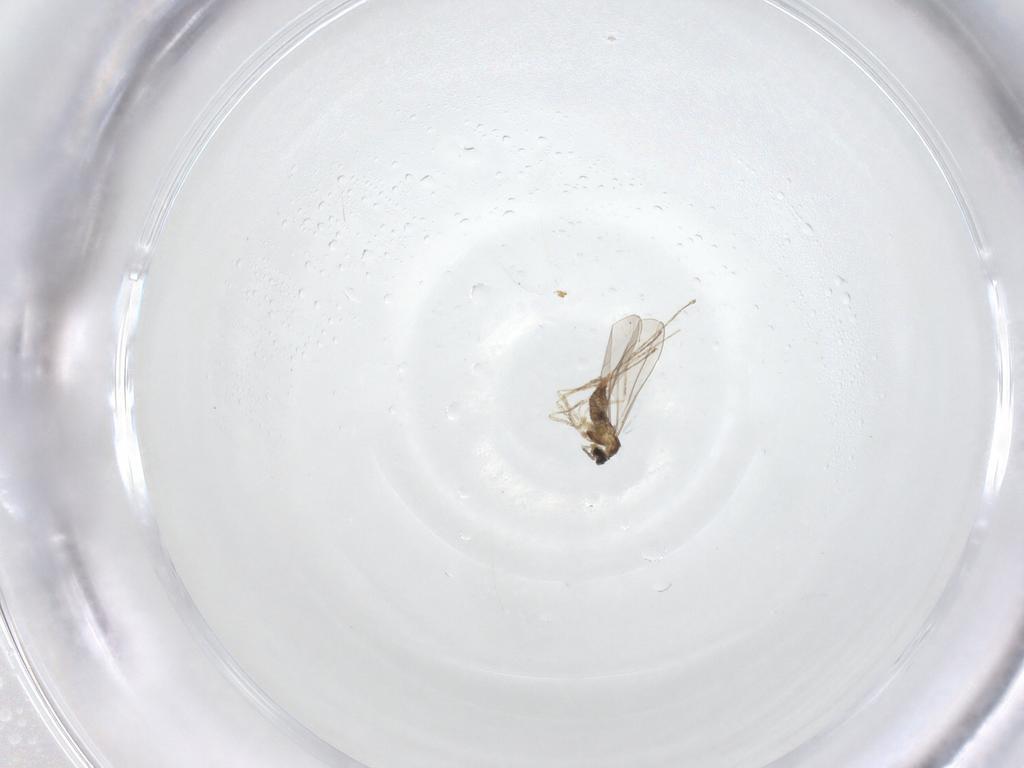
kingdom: Animalia
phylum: Arthropoda
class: Insecta
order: Diptera
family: Cecidomyiidae
